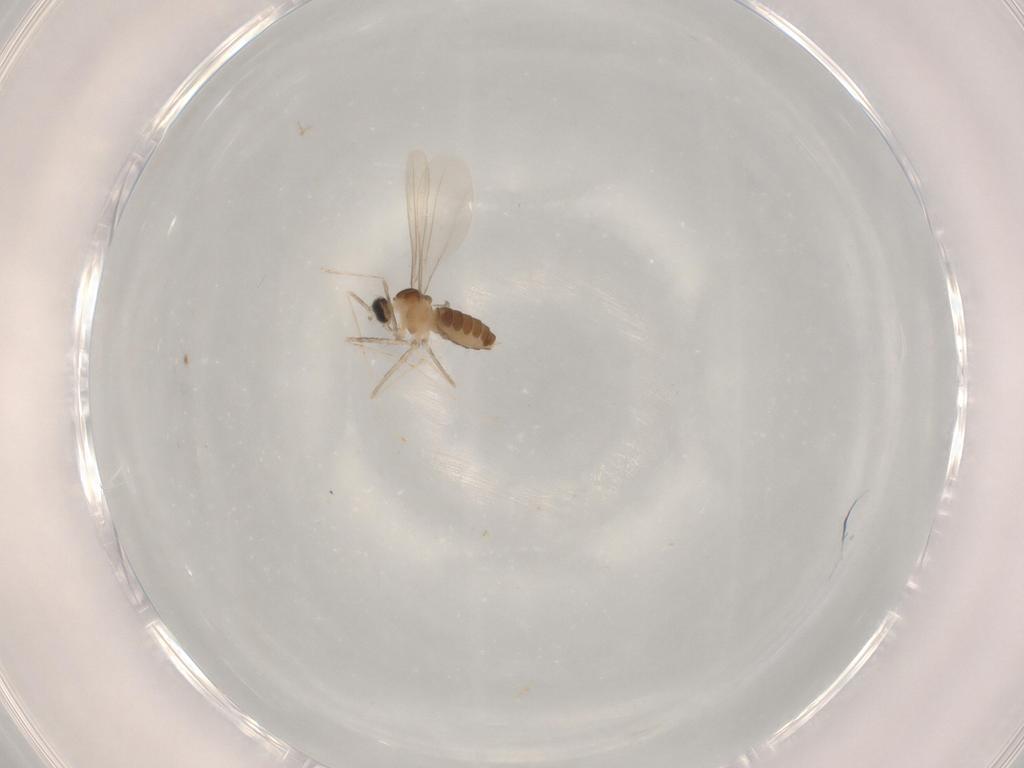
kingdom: Animalia
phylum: Arthropoda
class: Insecta
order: Diptera
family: Cecidomyiidae
